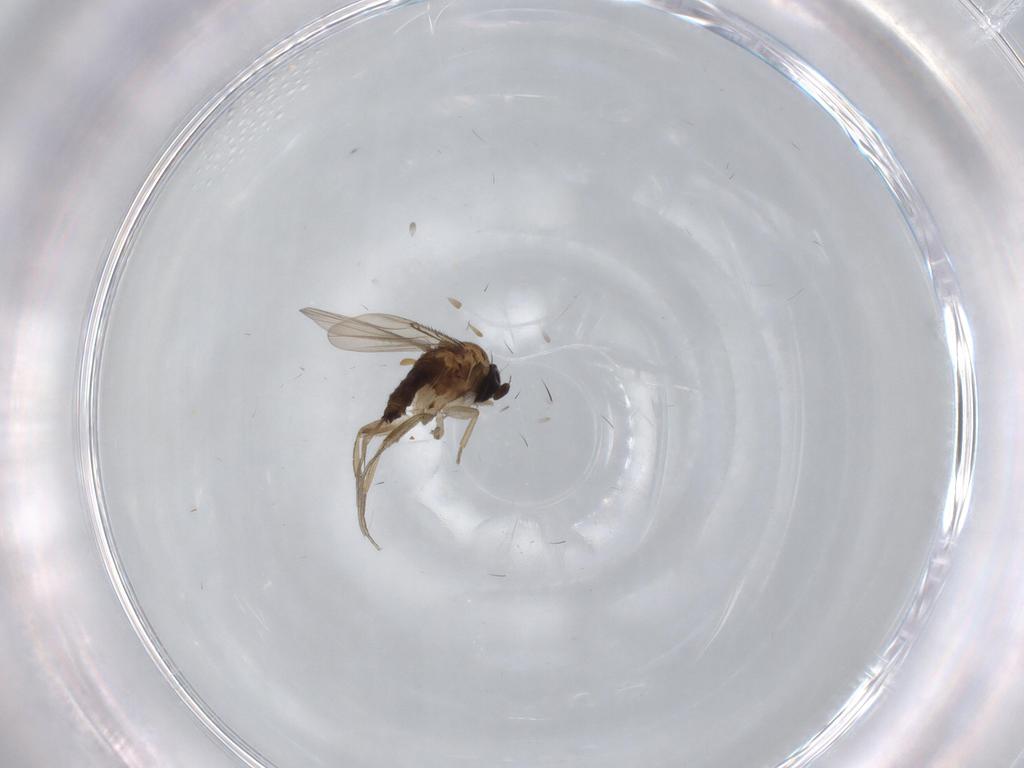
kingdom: Animalia
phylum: Arthropoda
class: Insecta
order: Diptera
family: Phoridae
